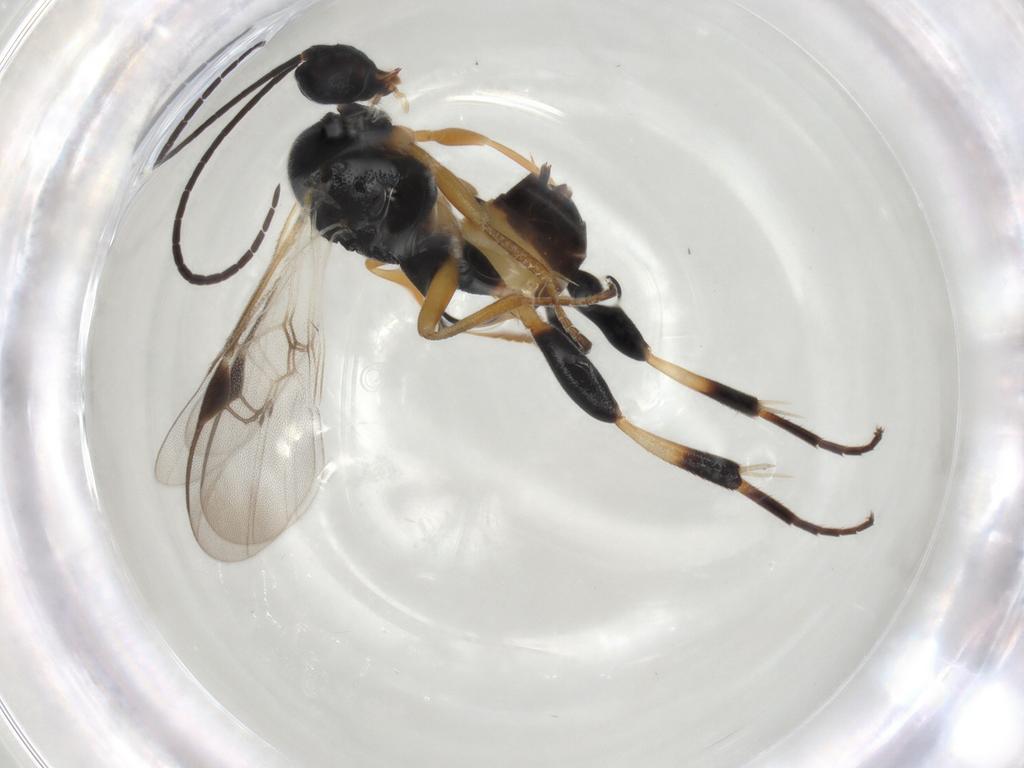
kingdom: Animalia
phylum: Arthropoda
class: Insecta
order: Hymenoptera
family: Braconidae
